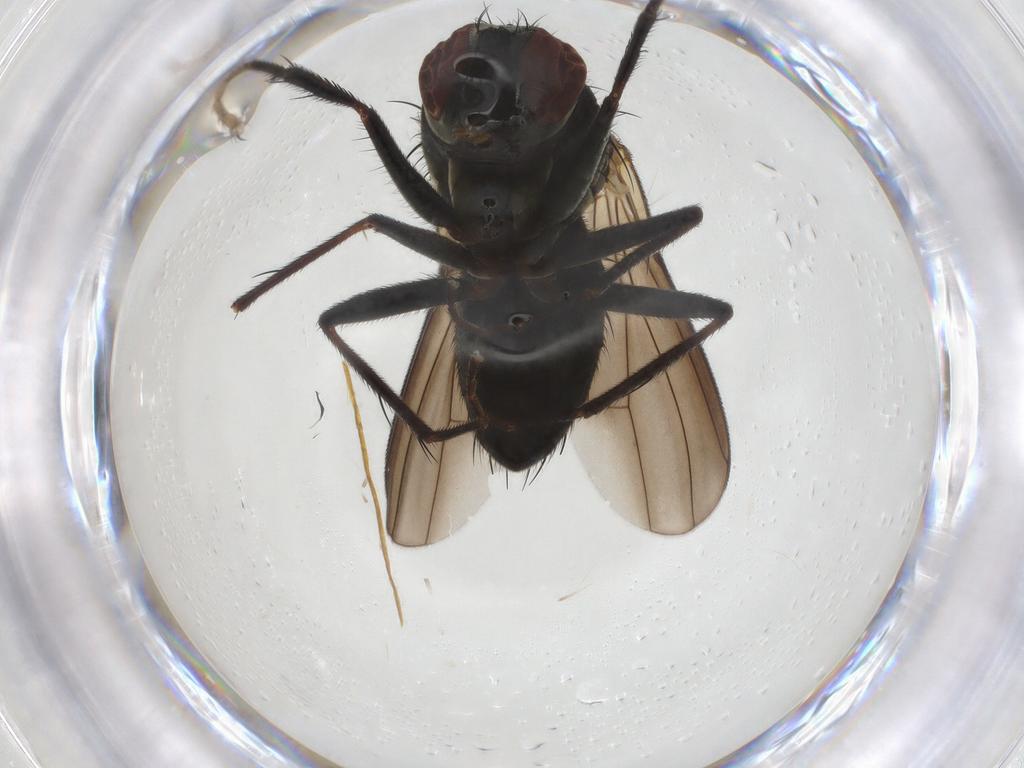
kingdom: Animalia
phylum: Arthropoda
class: Insecta
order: Diptera
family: Muscidae
